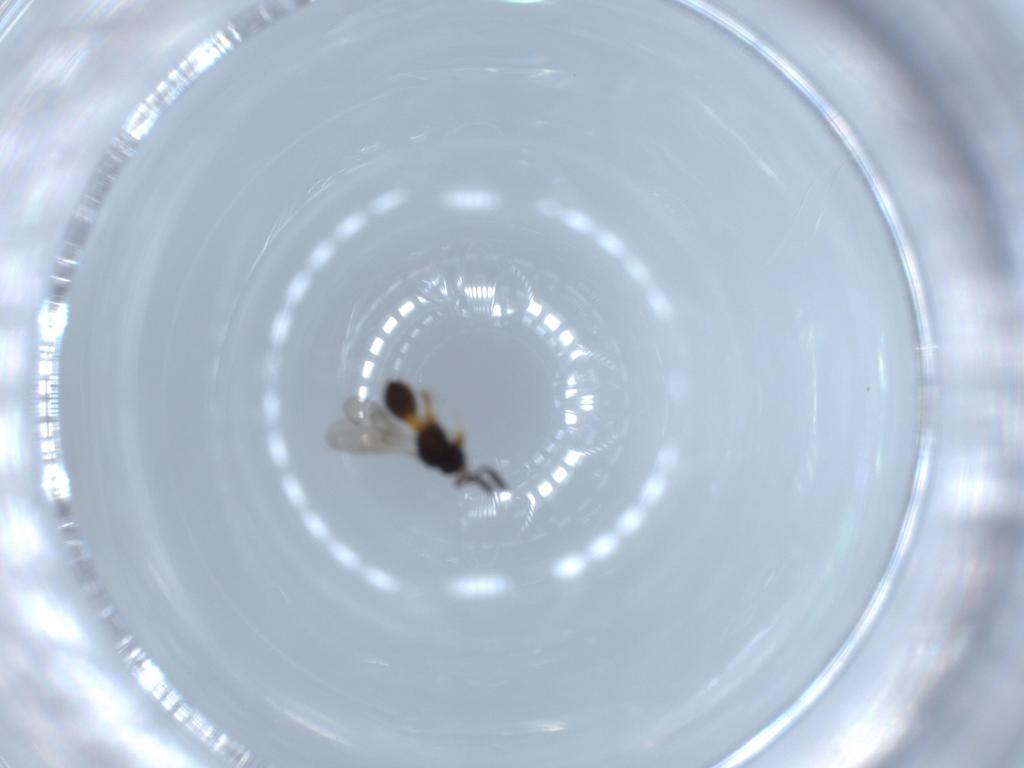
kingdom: Animalia
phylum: Arthropoda
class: Insecta
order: Hymenoptera
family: Scelionidae
